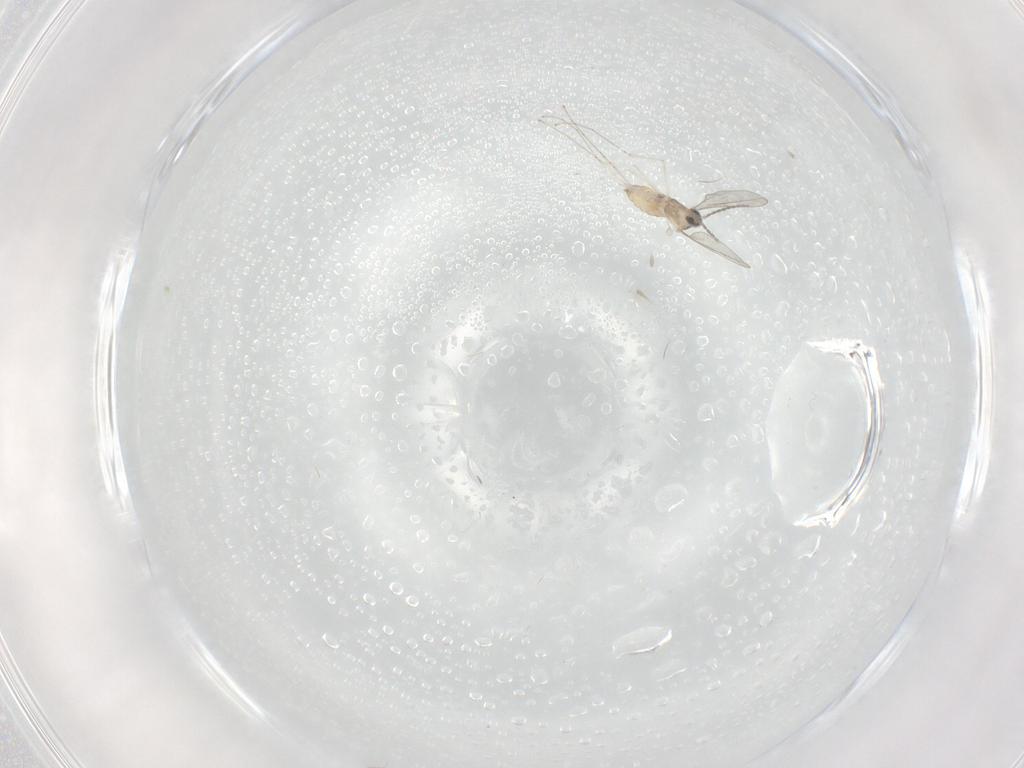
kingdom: Animalia
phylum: Arthropoda
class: Insecta
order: Diptera
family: Cecidomyiidae
